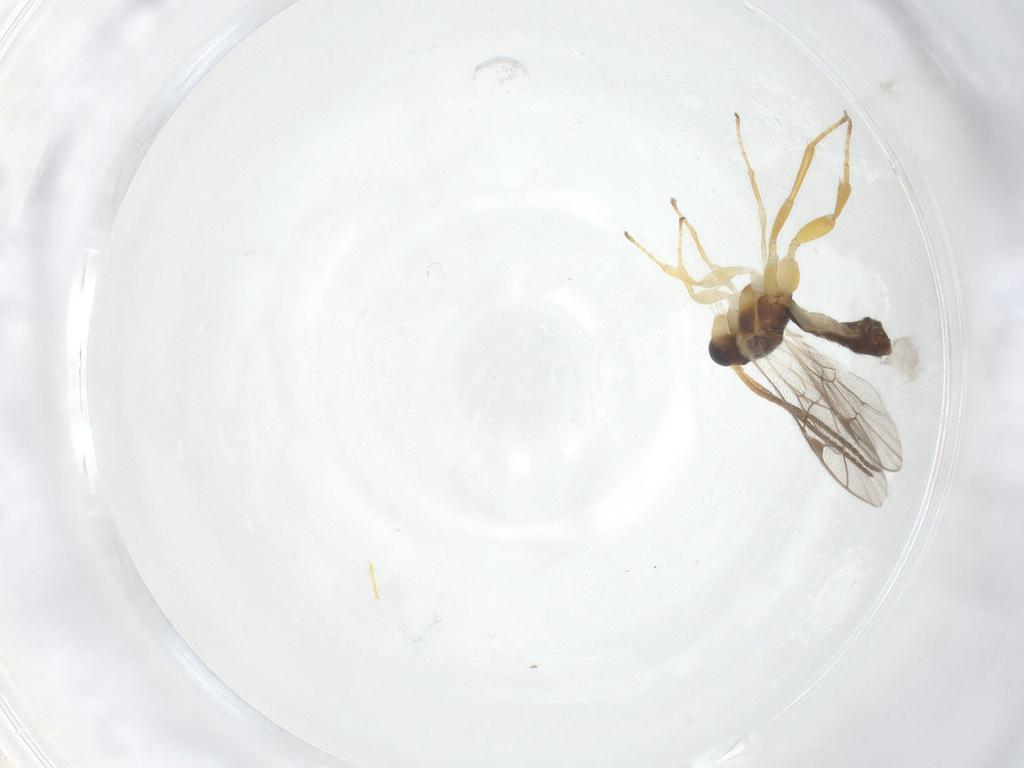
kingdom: Animalia
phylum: Arthropoda
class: Insecta
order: Hymenoptera
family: Ichneumonidae
